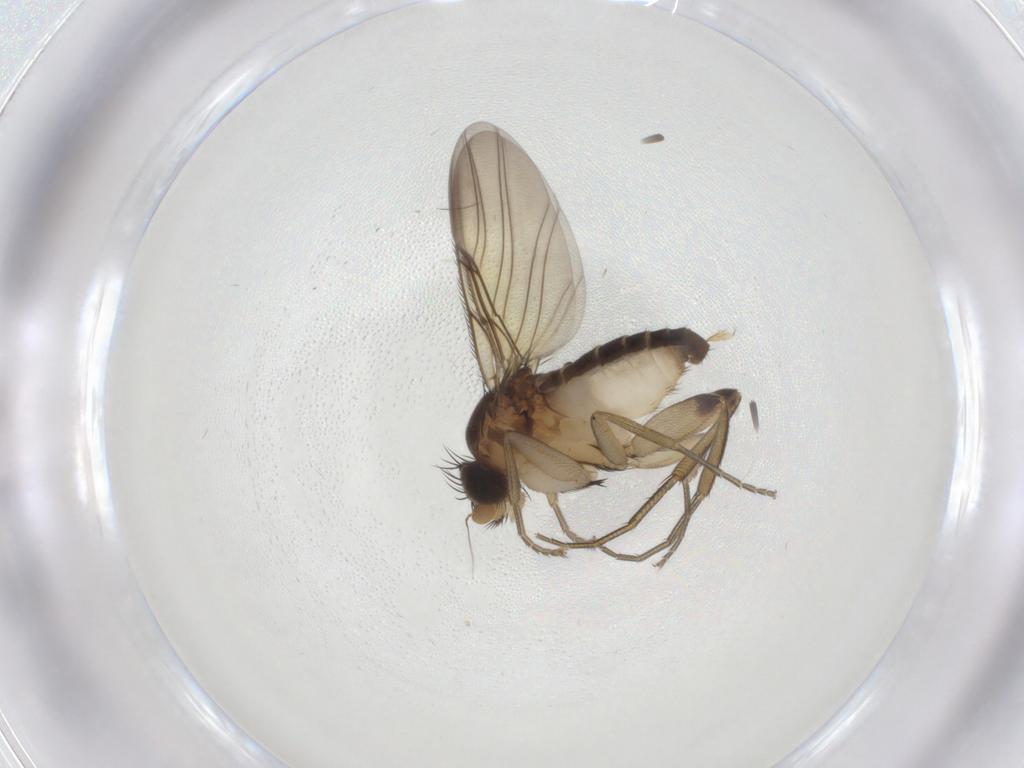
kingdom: Animalia
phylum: Arthropoda
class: Insecta
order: Diptera
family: Phoridae
